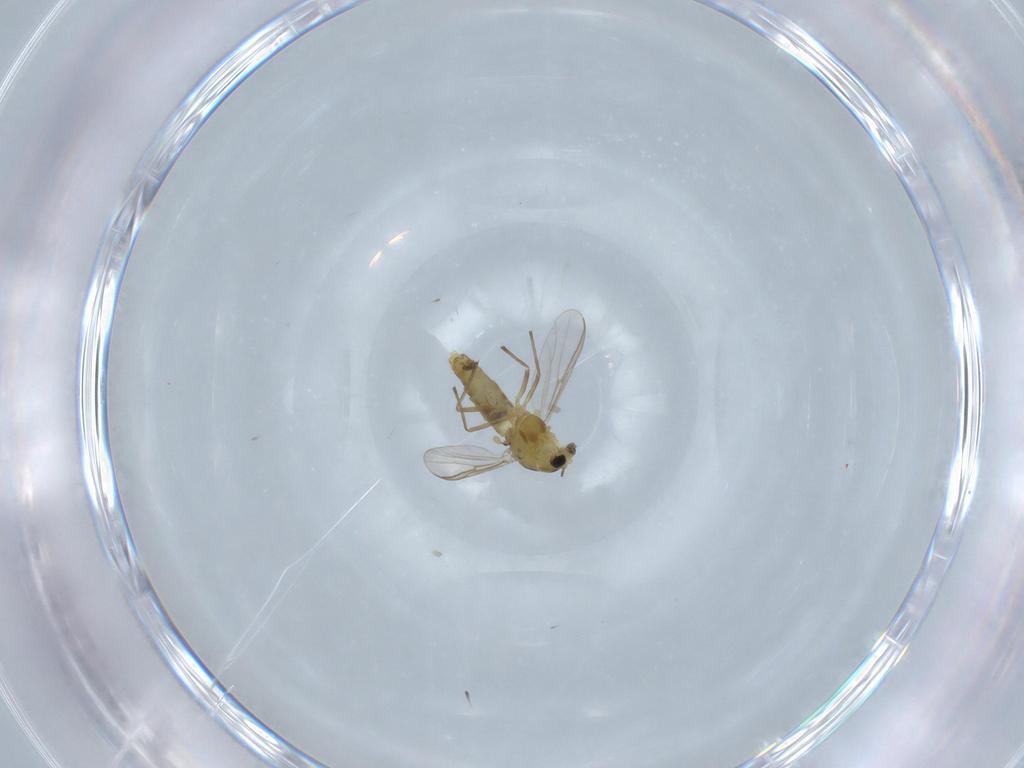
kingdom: Animalia
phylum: Arthropoda
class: Insecta
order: Diptera
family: Chironomidae
